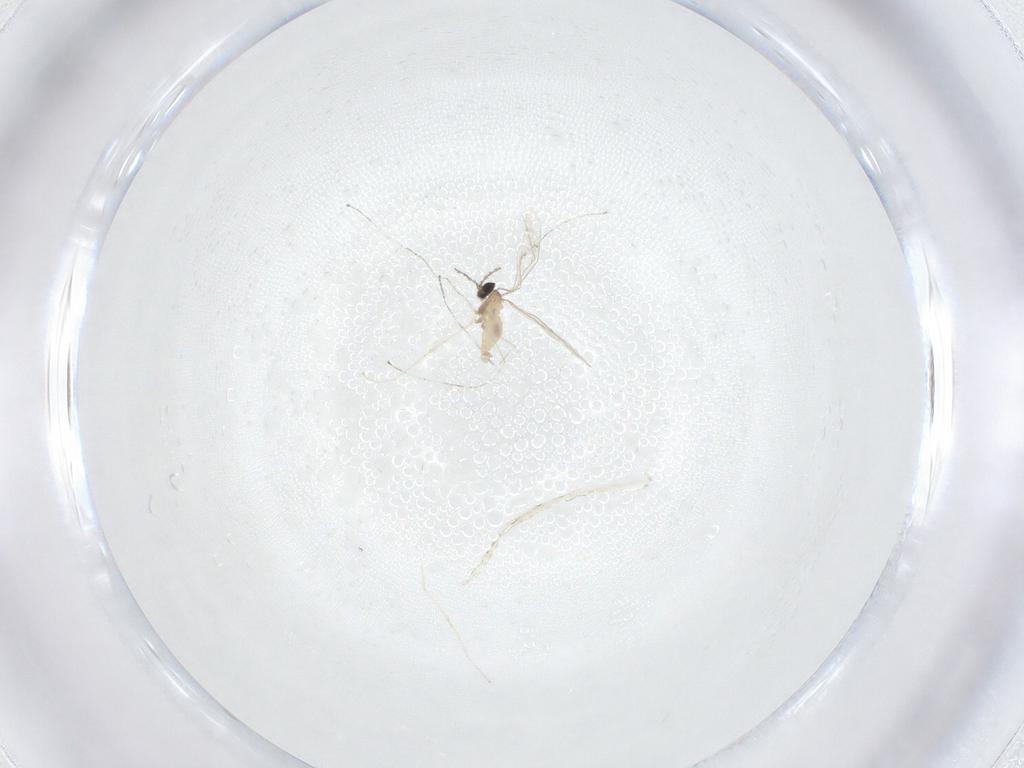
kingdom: Animalia
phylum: Arthropoda
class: Insecta
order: Diptera
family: Cecidomyiidae
